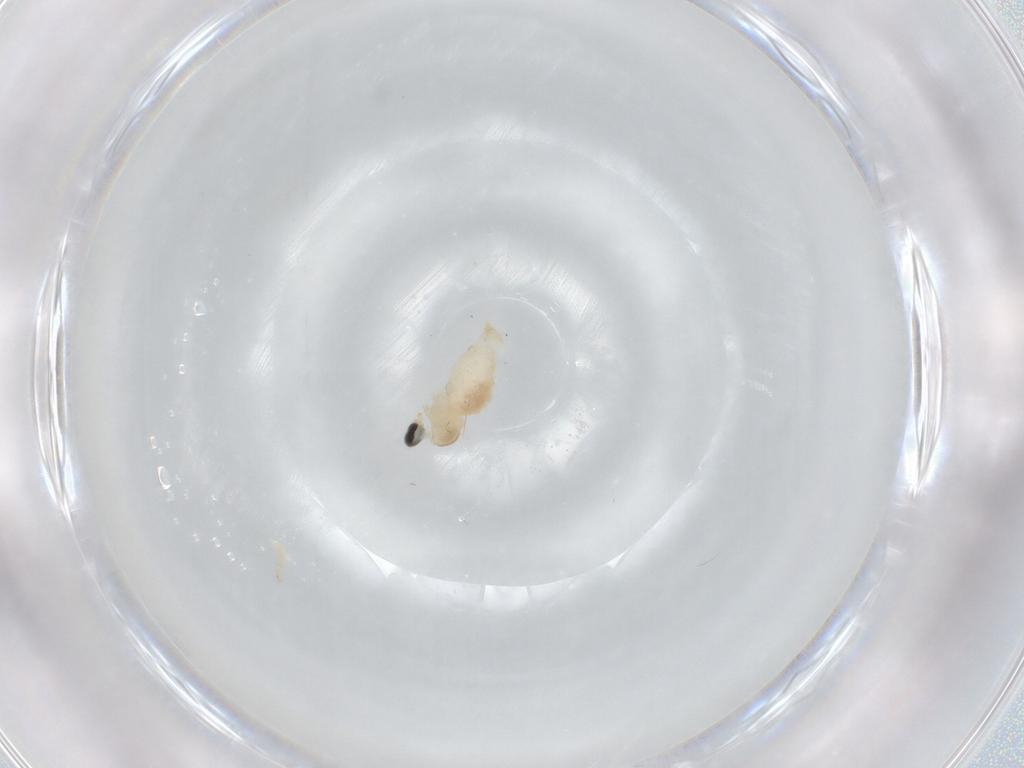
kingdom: Animalia
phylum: Arthropoda
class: Insecta
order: Diptera
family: Cecidomyiidae
